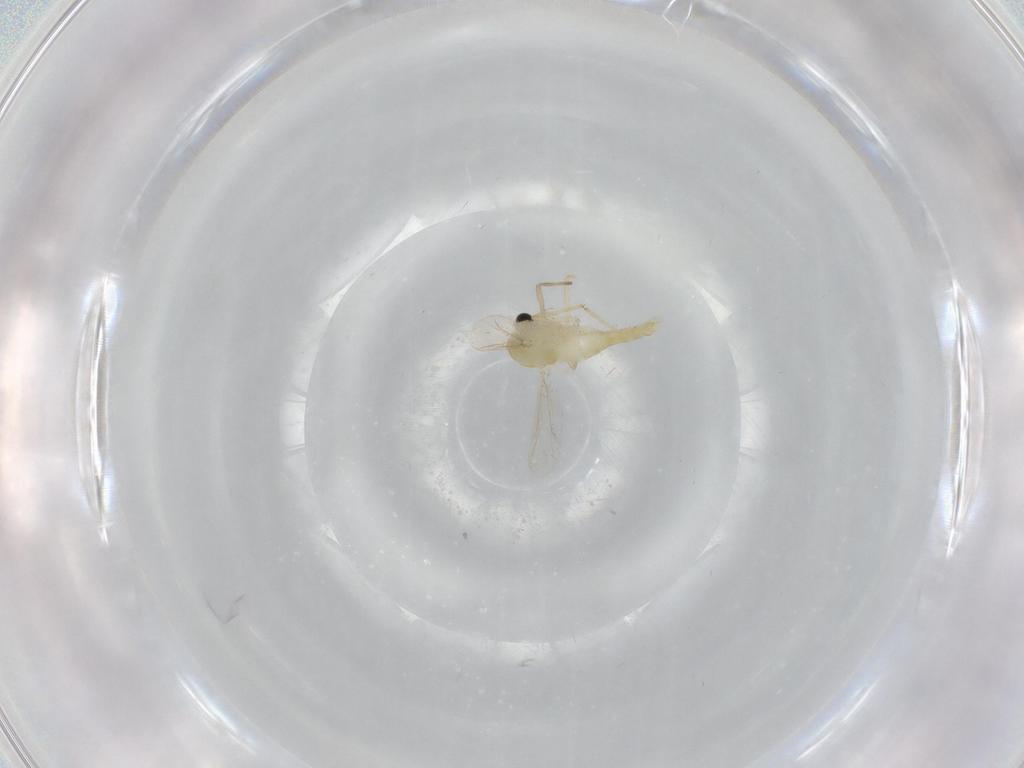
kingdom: Animalia
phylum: Arthropoda
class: Insecta
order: Diptera
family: Chironomidae
